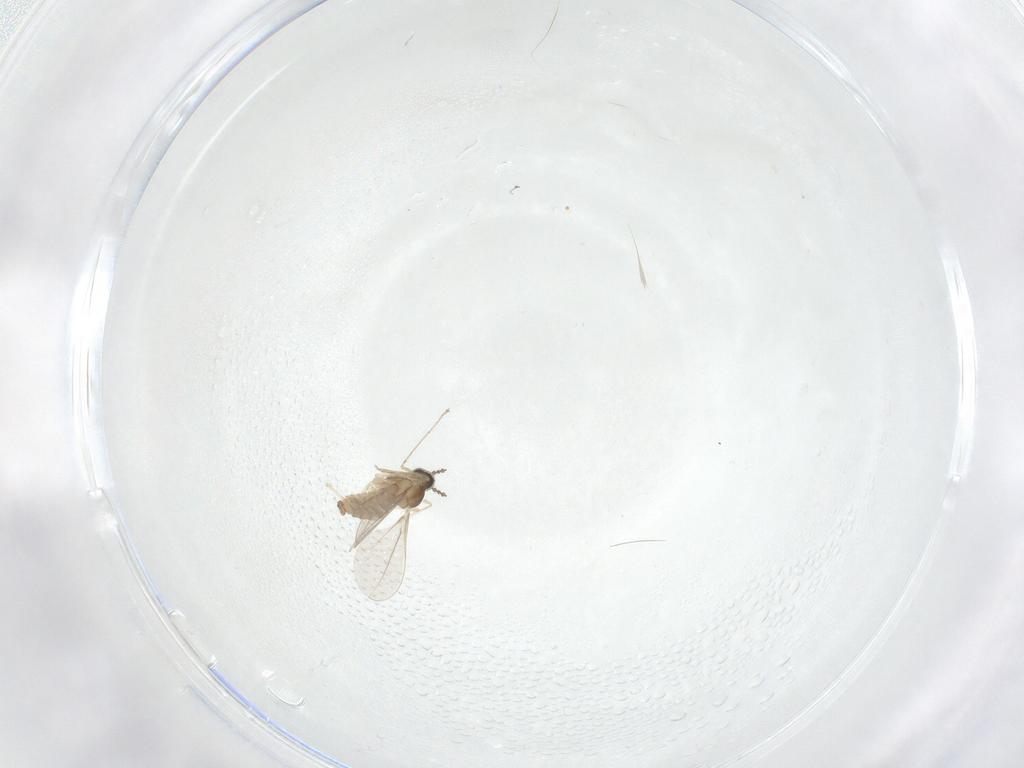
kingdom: Animalia
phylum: Arthropoda
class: Insecta
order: Diptera
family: Cecidomyiidae
